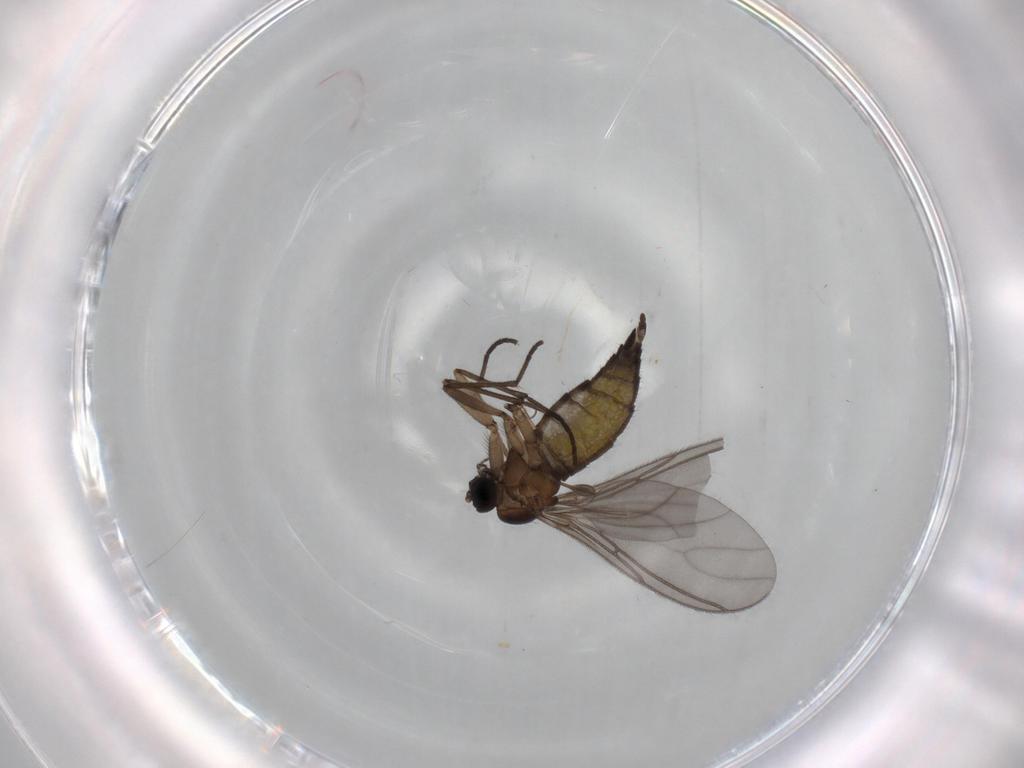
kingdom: Animalia
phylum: Arthropoda
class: Insecta
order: Diptera
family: Sciaridae
